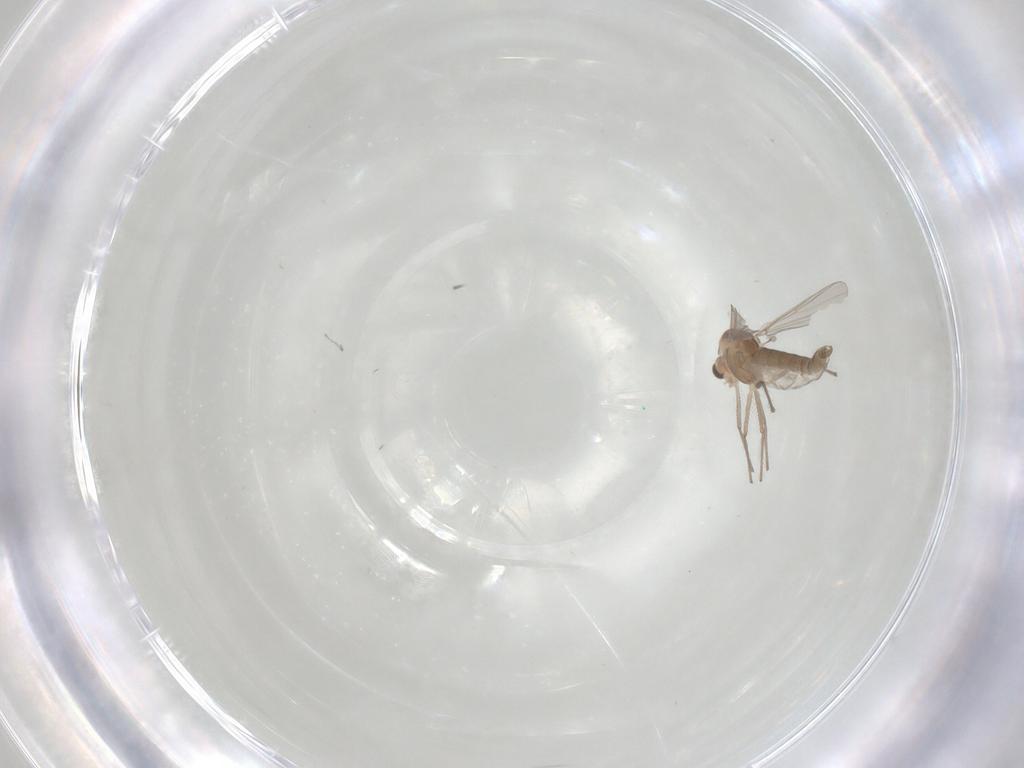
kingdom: Animalia
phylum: Arthropoda
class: Insecta
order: Diptera
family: Chironomidae
